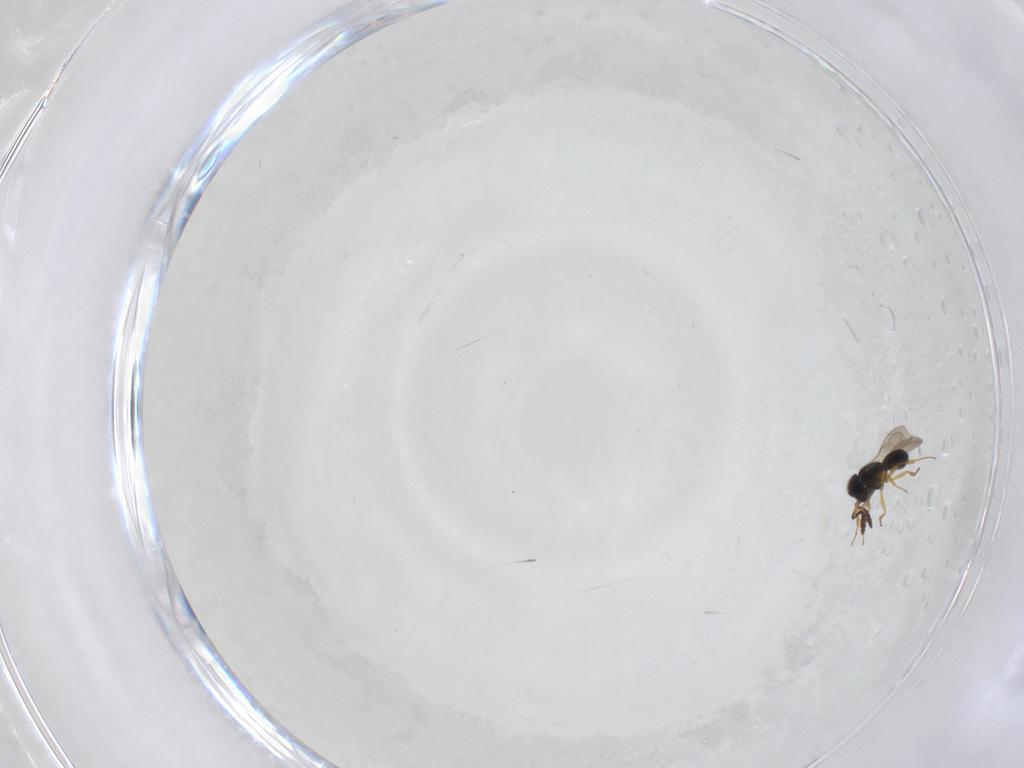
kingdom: Animalia
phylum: Arthropoda
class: Insecta
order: Hymenoptera
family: Scelionidae
